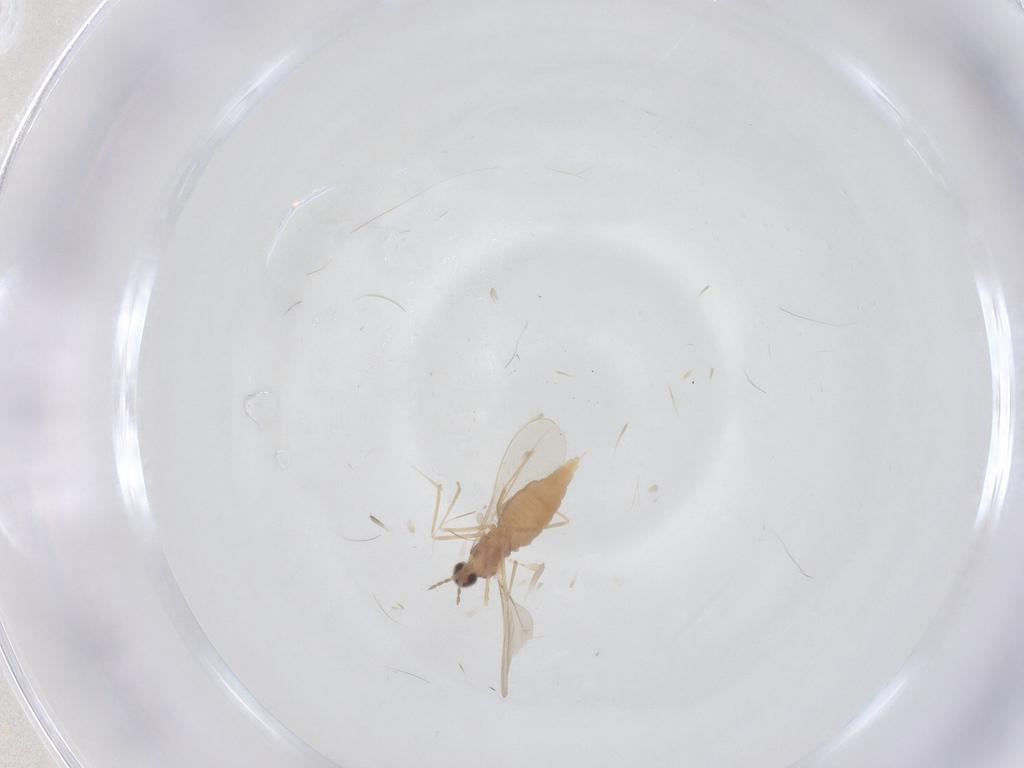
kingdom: Animalia
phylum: Arthropoda
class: Insecta
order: Diptera
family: Cecidomyiidae
